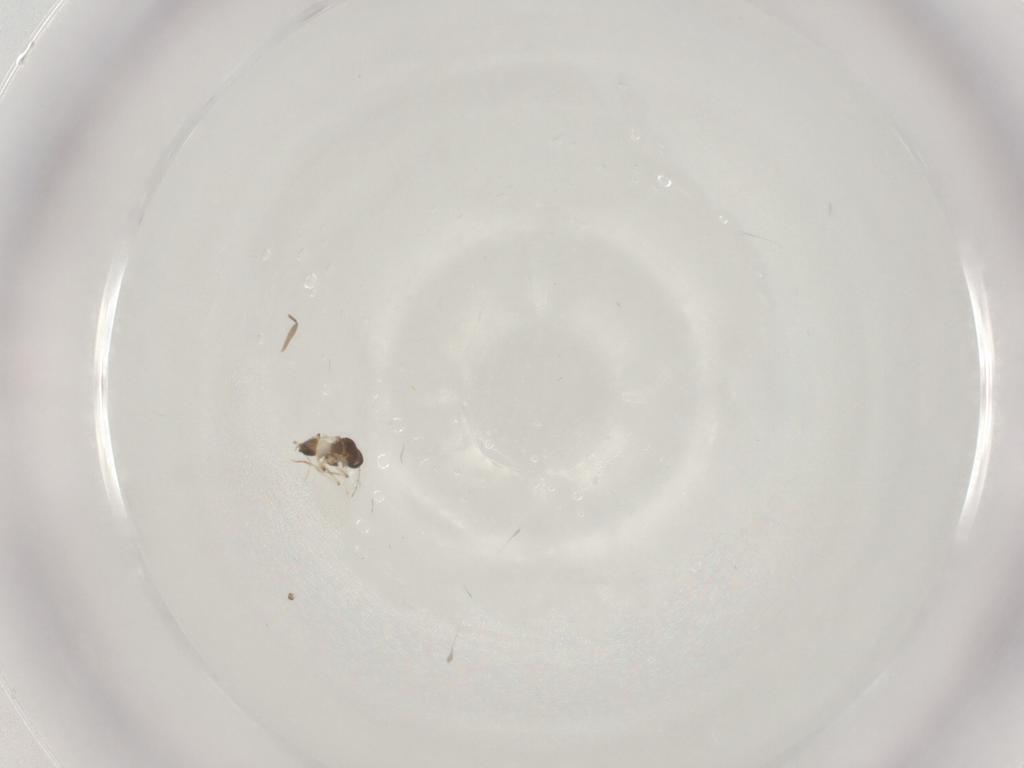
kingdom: Animalia
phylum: Arthropoda
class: Insecta
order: Diptera
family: Ceratopogonidae
